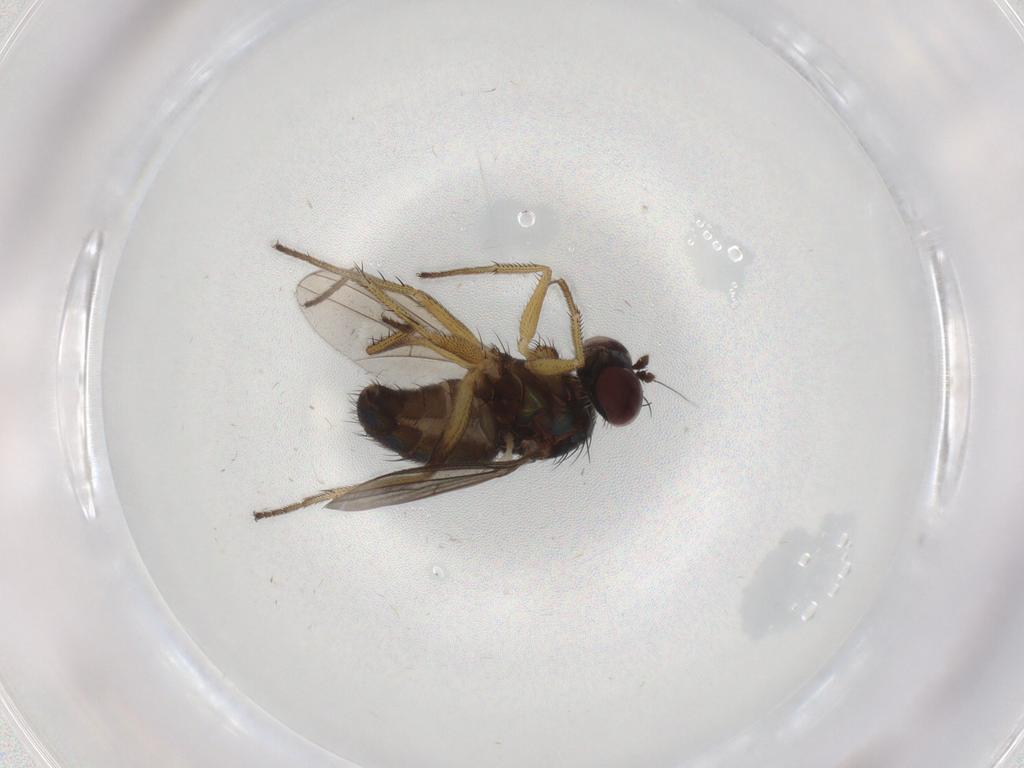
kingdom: Animalia
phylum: Arthropoda
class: Insecta
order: Diptera
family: Dolichopodidae
